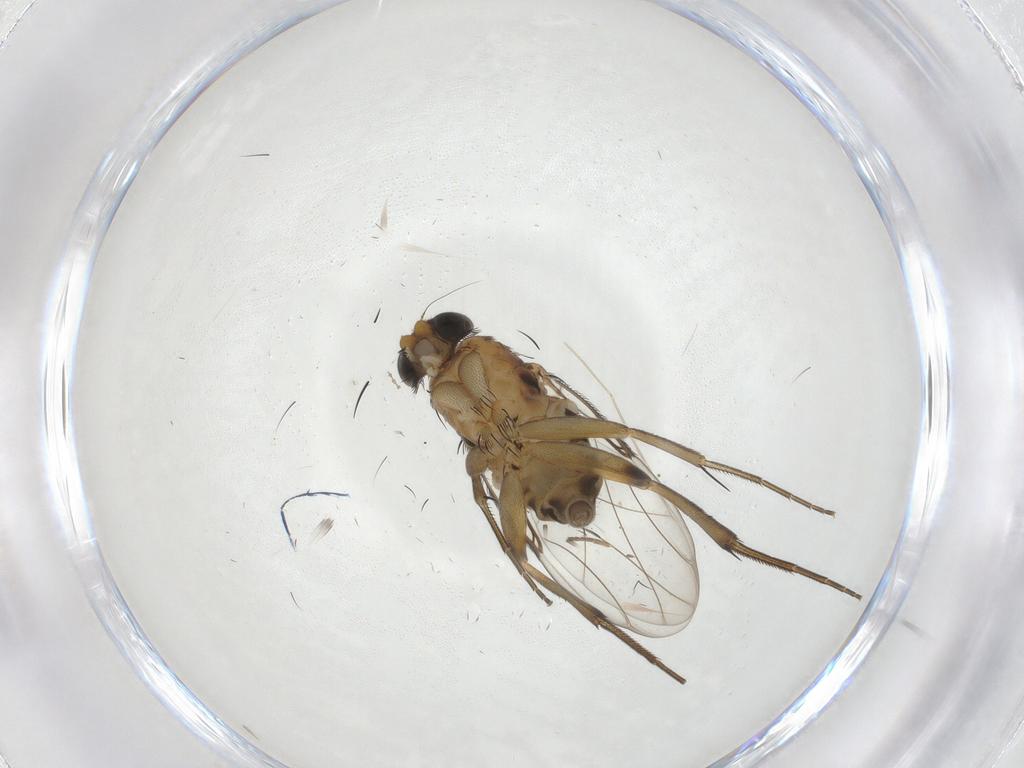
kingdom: Animalia
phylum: Arthropoda
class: Insecta
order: Diptera
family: Phoridae
